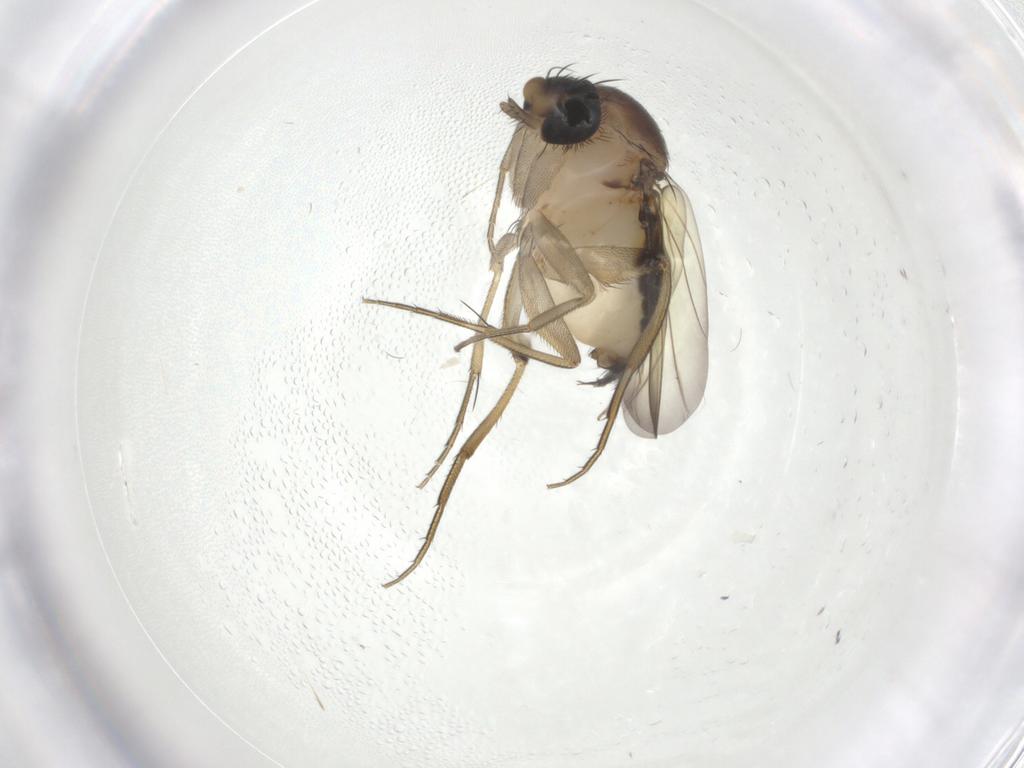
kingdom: Animalia
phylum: Arthropoda
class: Insecta
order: Diptera
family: Phoridae
